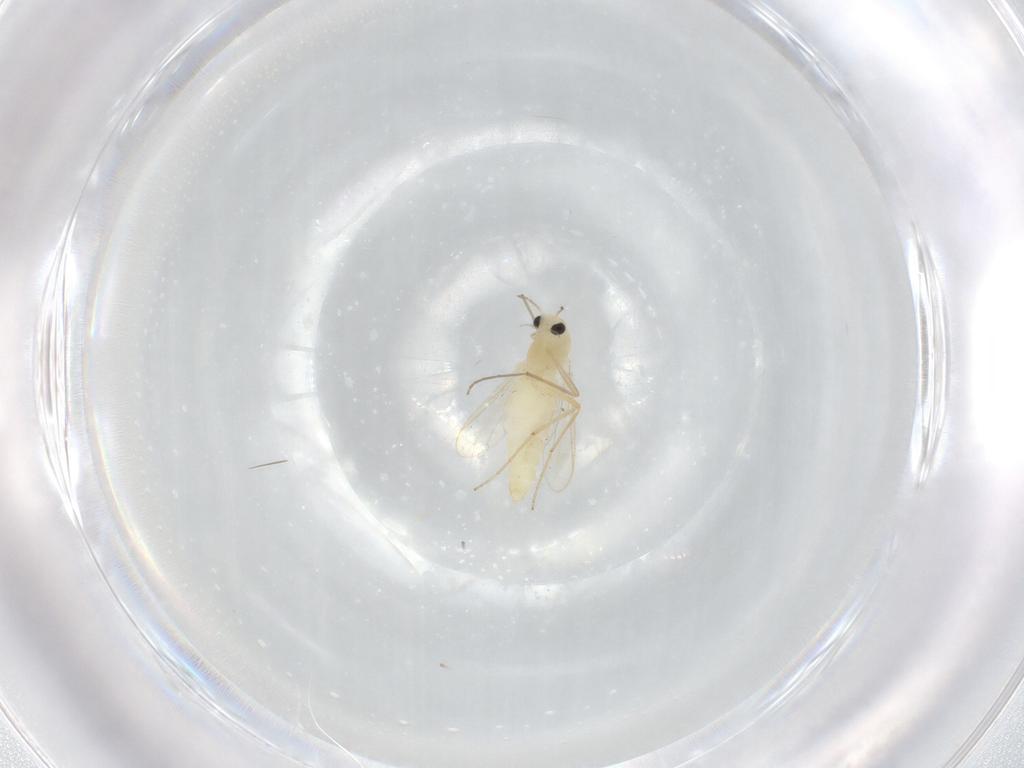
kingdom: Animalia
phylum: Arthropoda
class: Insecta
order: Diptera
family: Chironomidae
